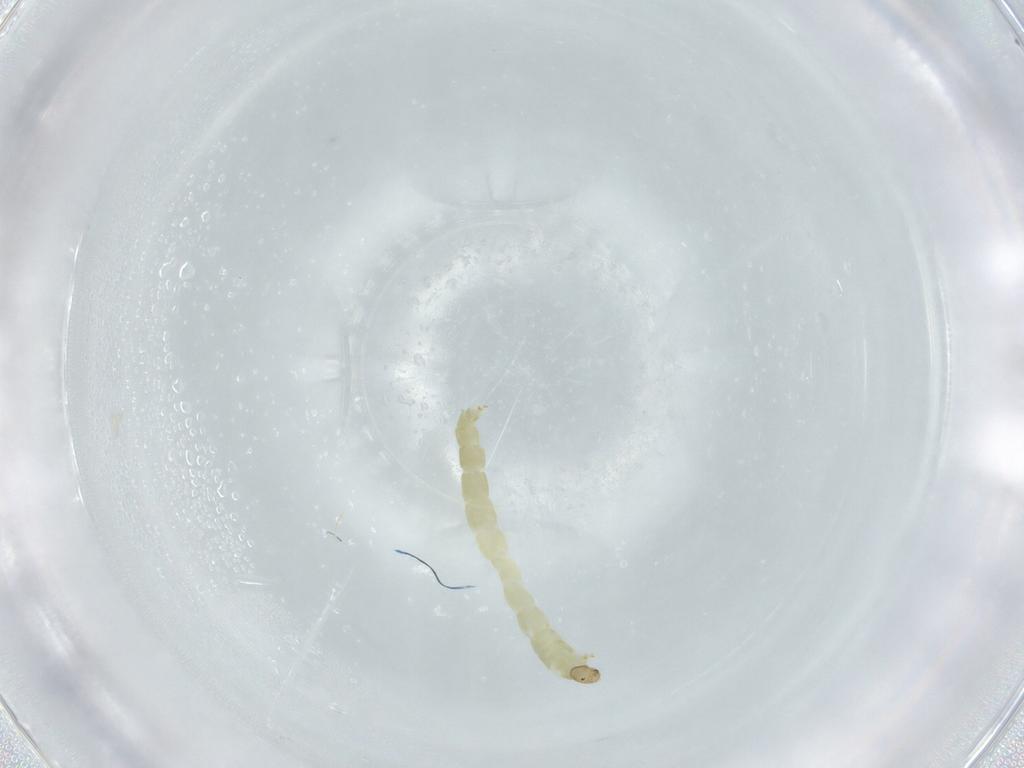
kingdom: Animalia
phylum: Arthropoda
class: Insecta
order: Diptera
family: Chironomidae
